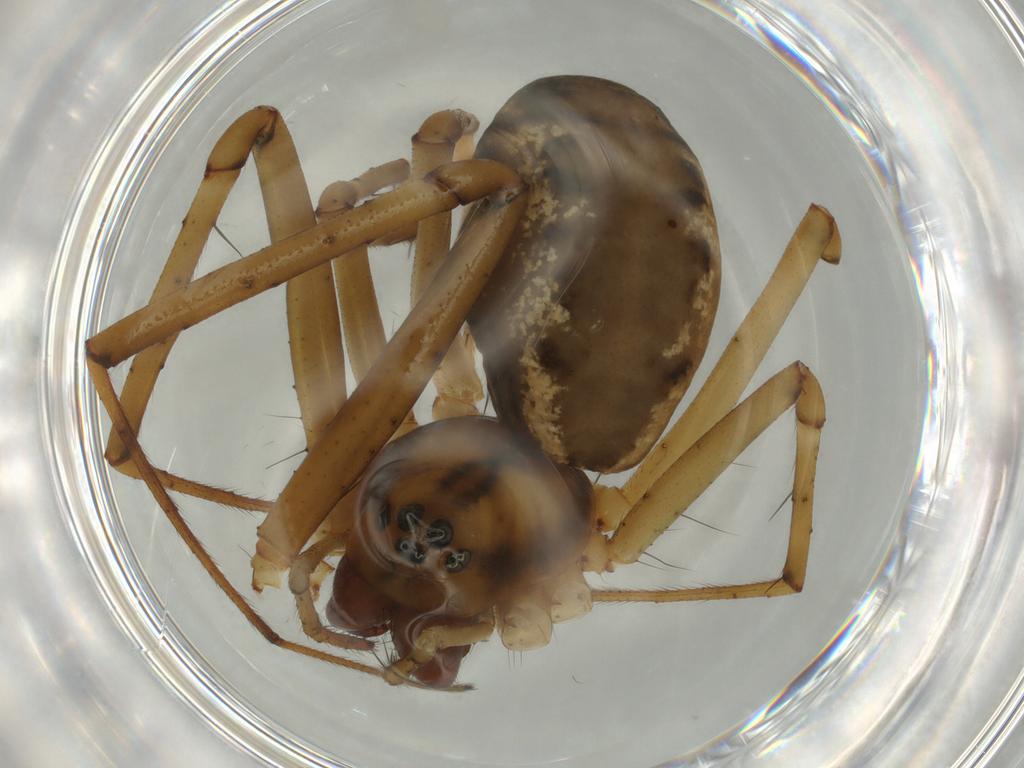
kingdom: Animalia
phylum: Arthropoda
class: Arachnida
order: Araneae
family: Linyphiidae
